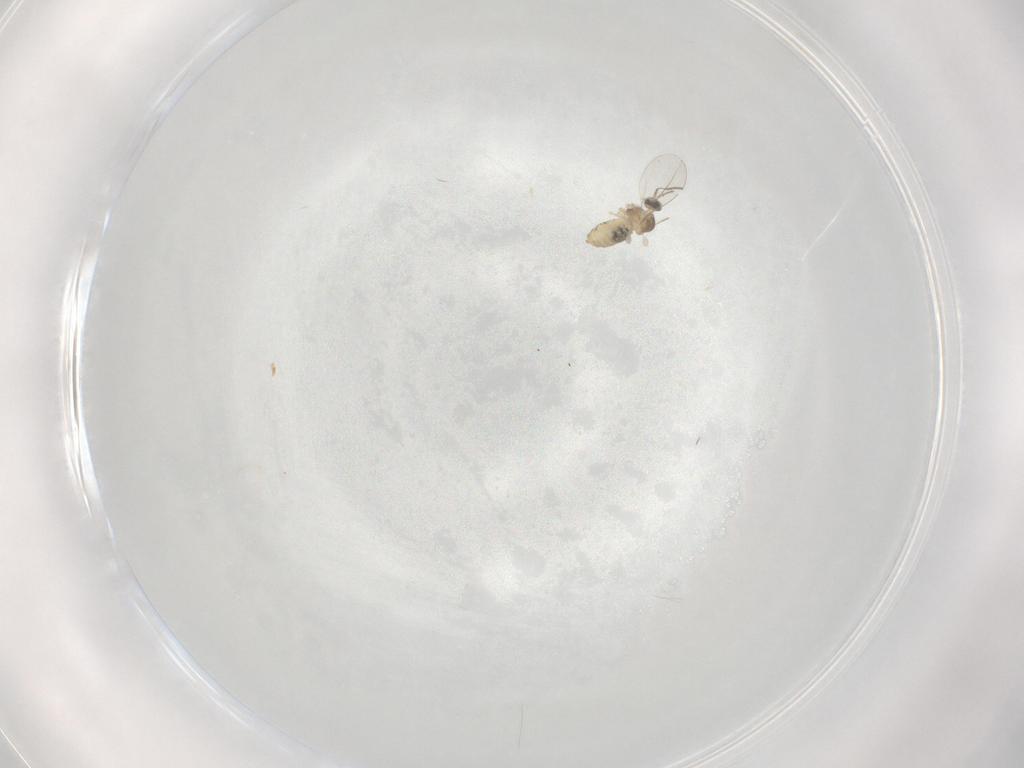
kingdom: Animalia
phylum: Arthropoda
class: Insecta
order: Diptera
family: Cecidomyiidae
